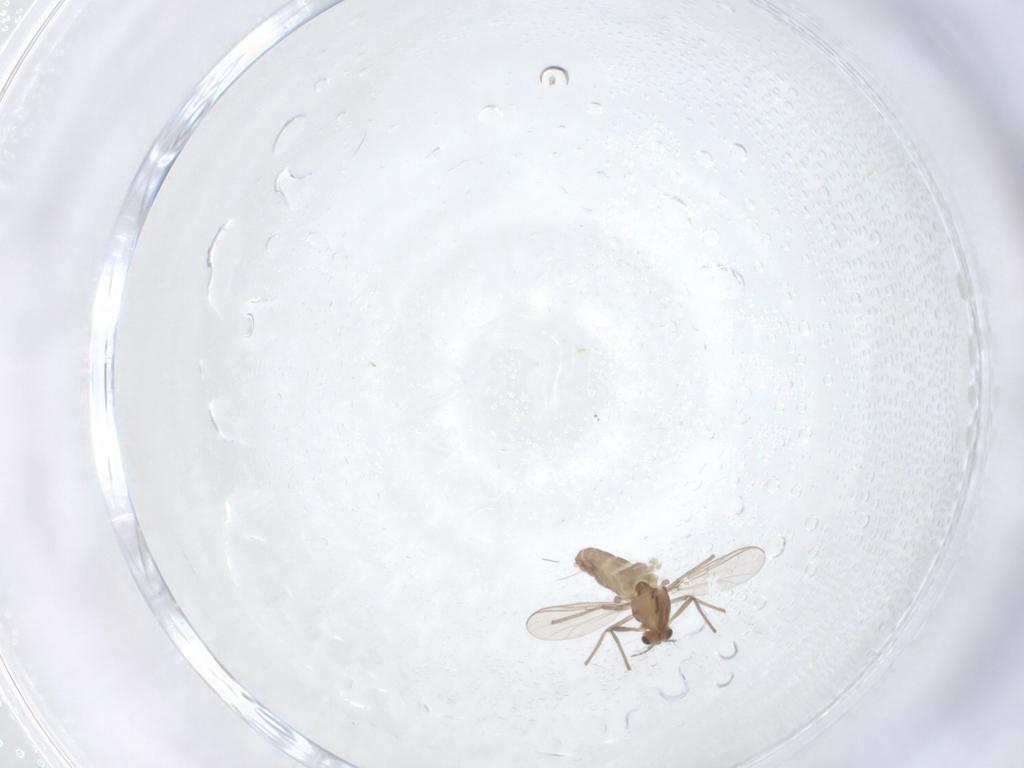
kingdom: Animalia
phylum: Arthropoda
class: Insecta
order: Diptera
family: Chironomidae
